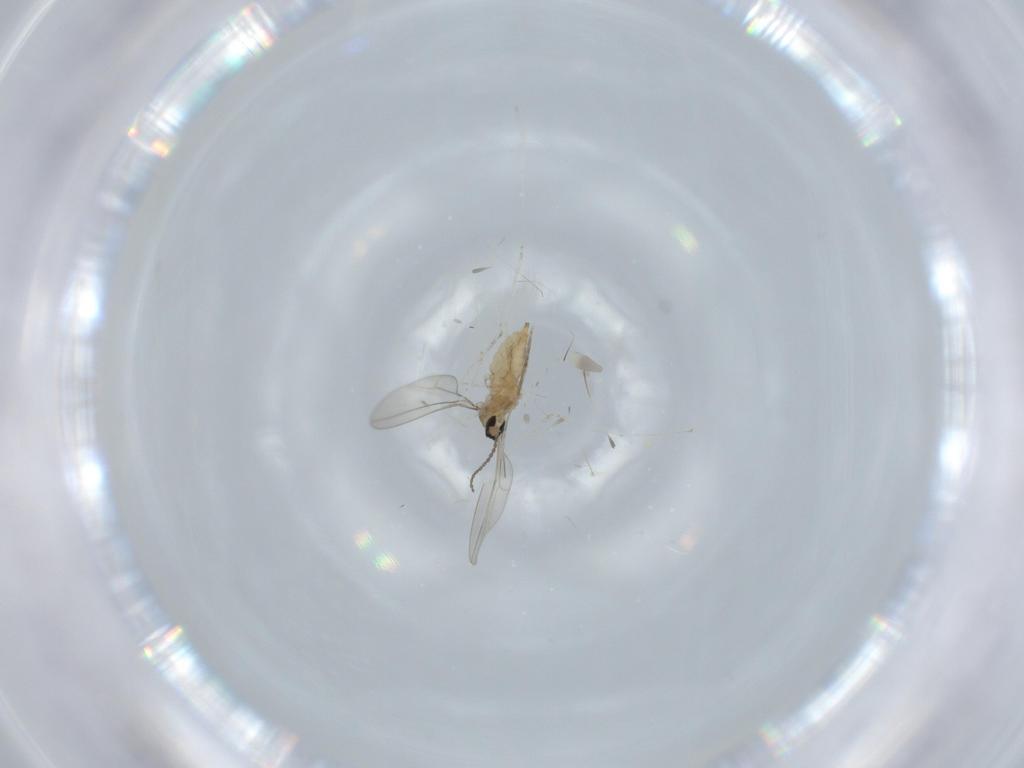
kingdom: Animalia
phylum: Arthropoda
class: Insecta
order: Diptera
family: Cecidomyiidae
